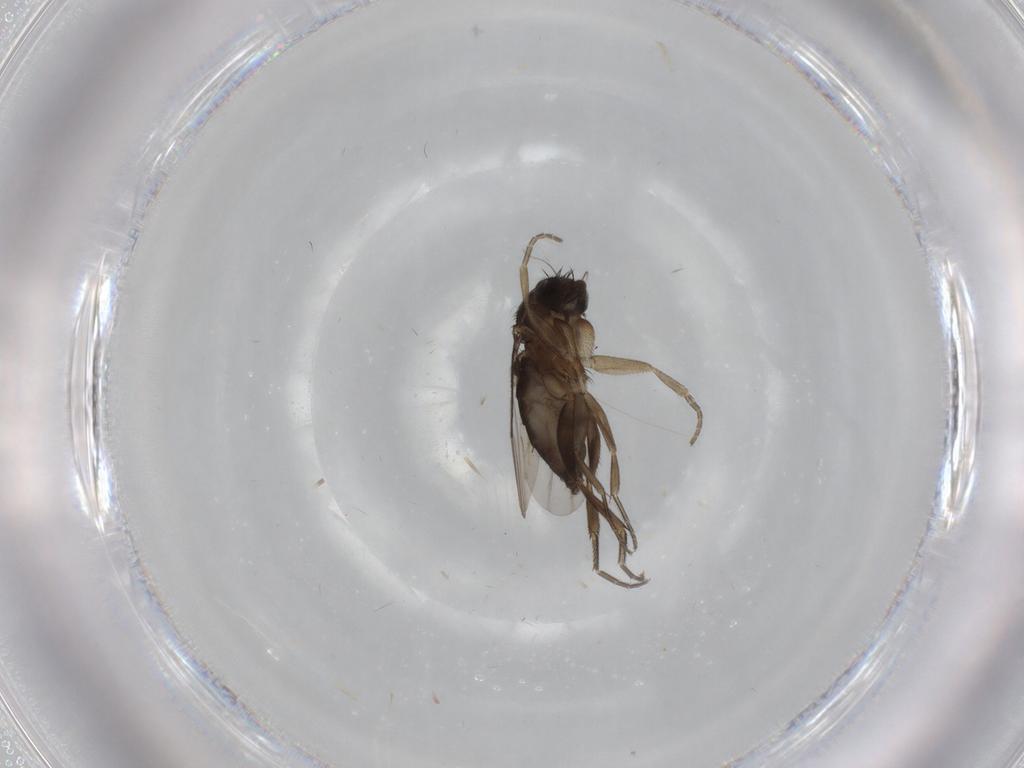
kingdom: Animalia
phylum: Arthropoda
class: Insecta
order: Diptera
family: Phoridae
